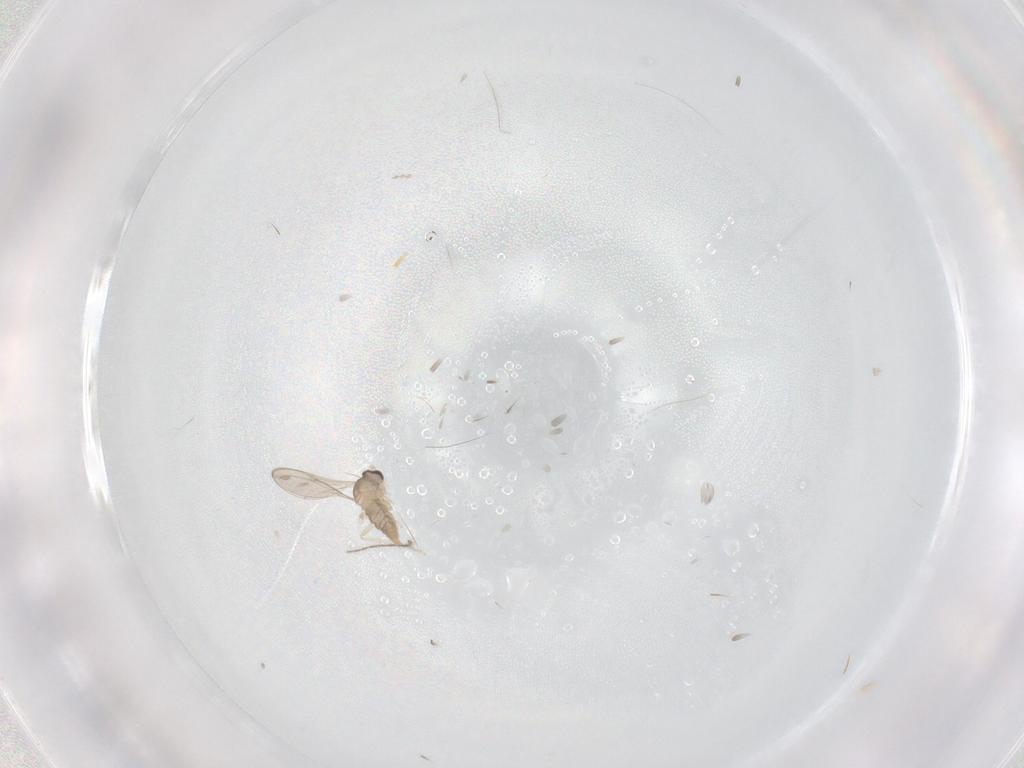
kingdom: Animalia
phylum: Arthropoda
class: Insecta
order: Diptera
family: Cecidomyiidae
